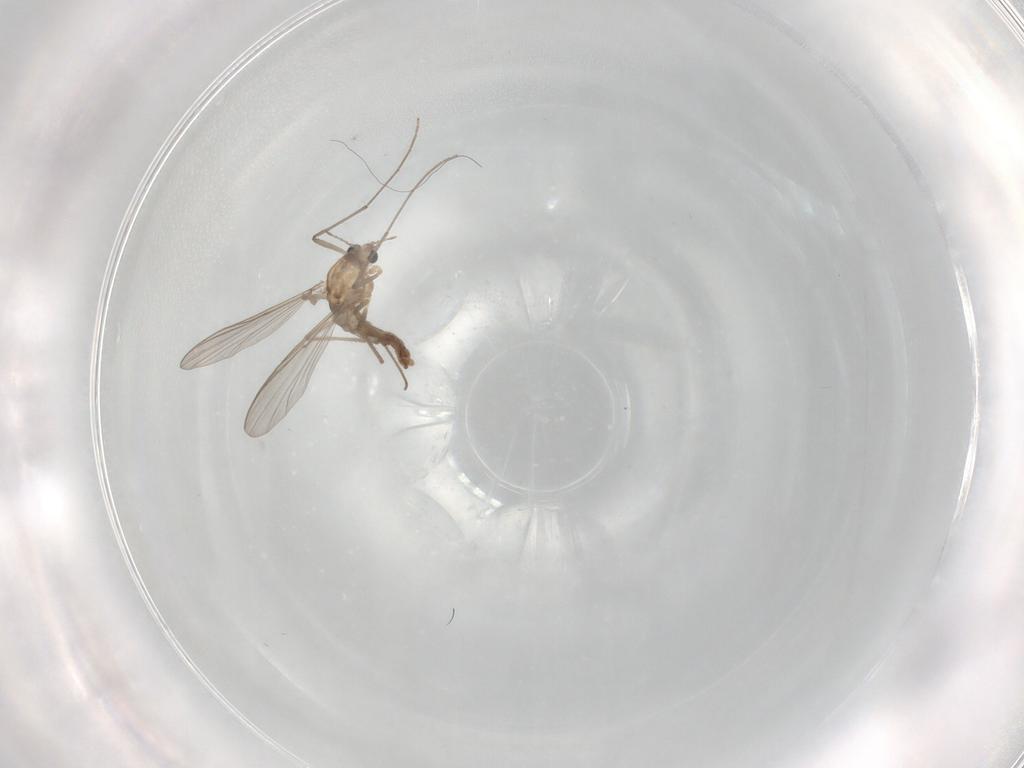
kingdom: Animalia
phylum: Arthropoda
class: Insecta
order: Diptera
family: Chironomidae
